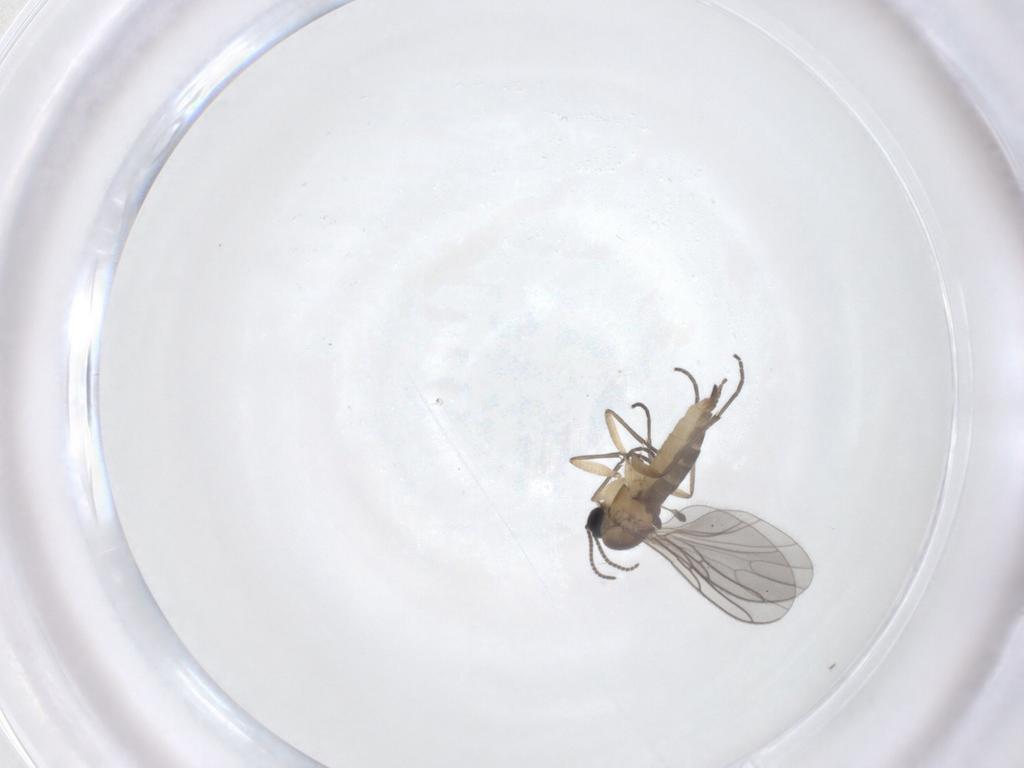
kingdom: Animalia
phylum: Arthropoda
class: Insecta
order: Diptera
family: Sciaridae
